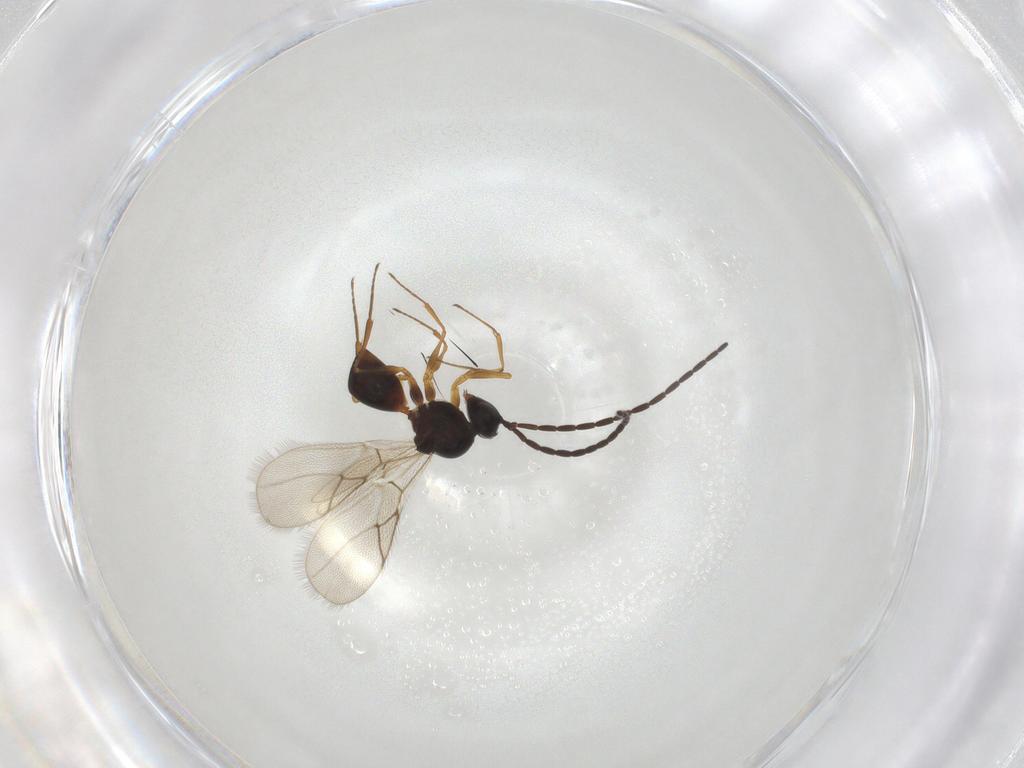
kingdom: Animalia
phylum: Arthropoda
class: Insecta
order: Hymenoptera
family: Figitidae
